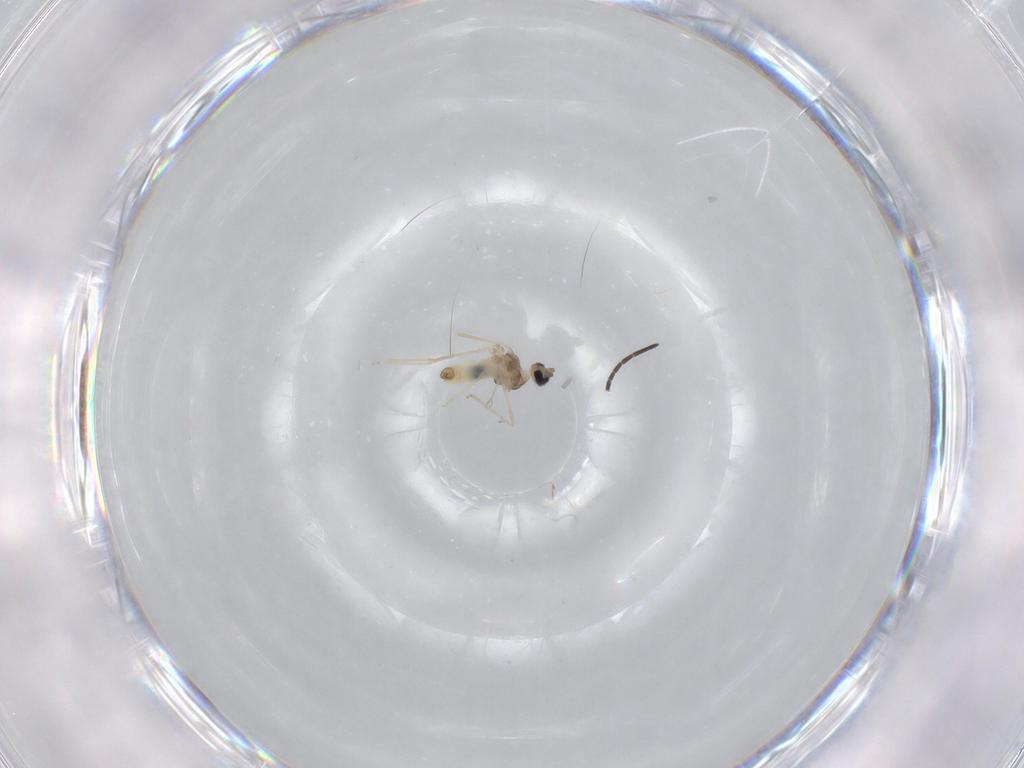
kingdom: Animalia
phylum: Arthropoda
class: Insecta
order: Diptera
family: Cecidomyiidae
